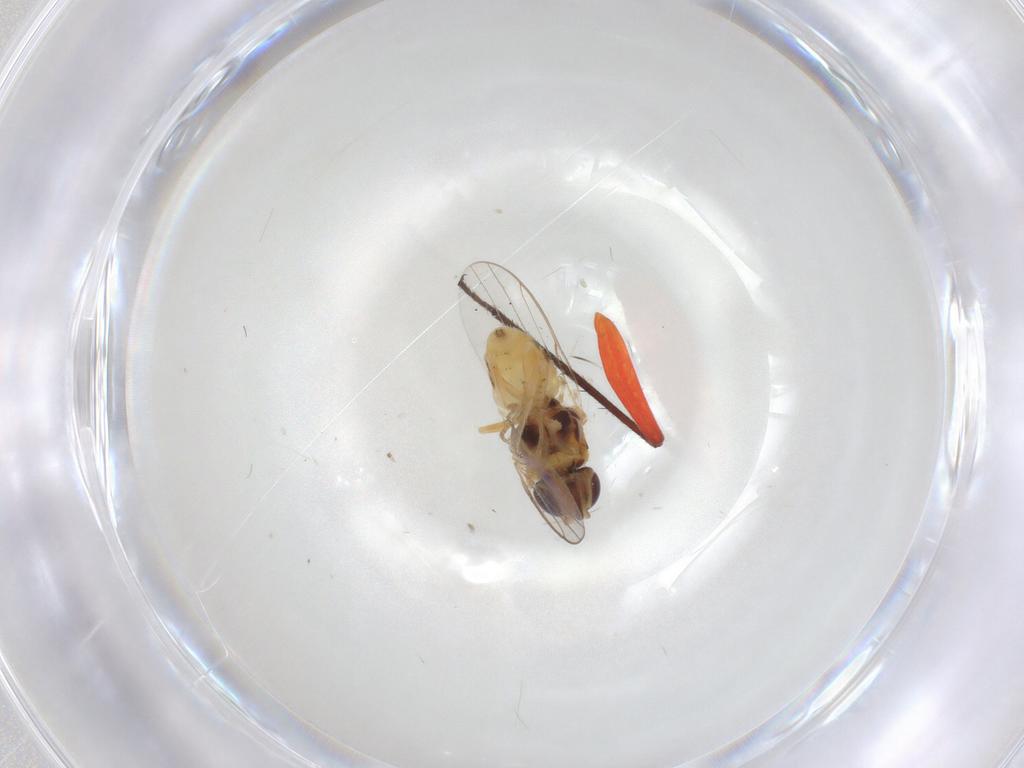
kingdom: Animalia
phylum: Arthropoda
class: Insecta
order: Diptera
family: Chloropidae
